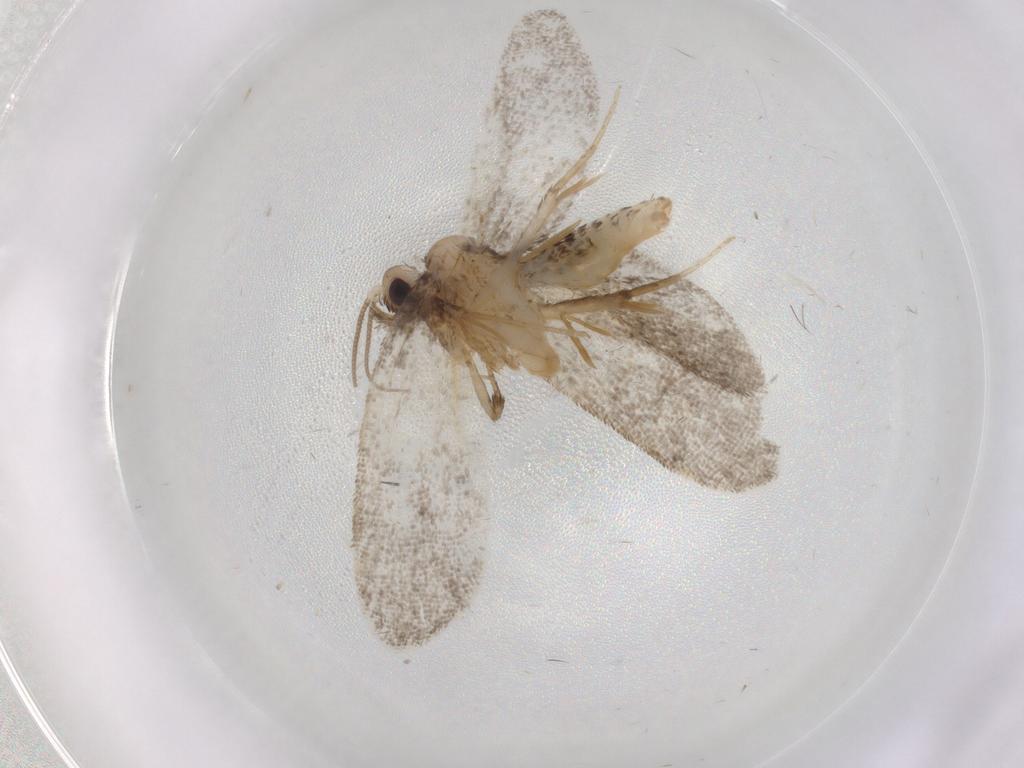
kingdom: Animalia
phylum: Arthropoda
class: Insecta
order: Lepidoptera
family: Psychidae
